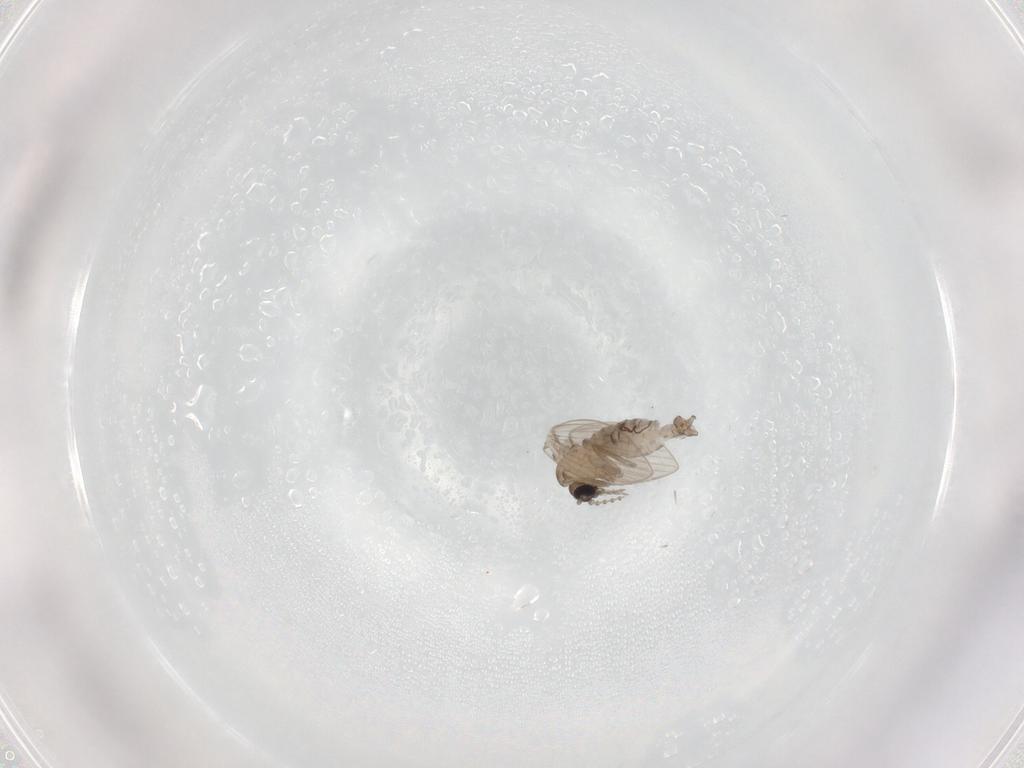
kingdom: Animalia
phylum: Arthropoda
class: Insecta
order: Diptera
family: Psychodidae
